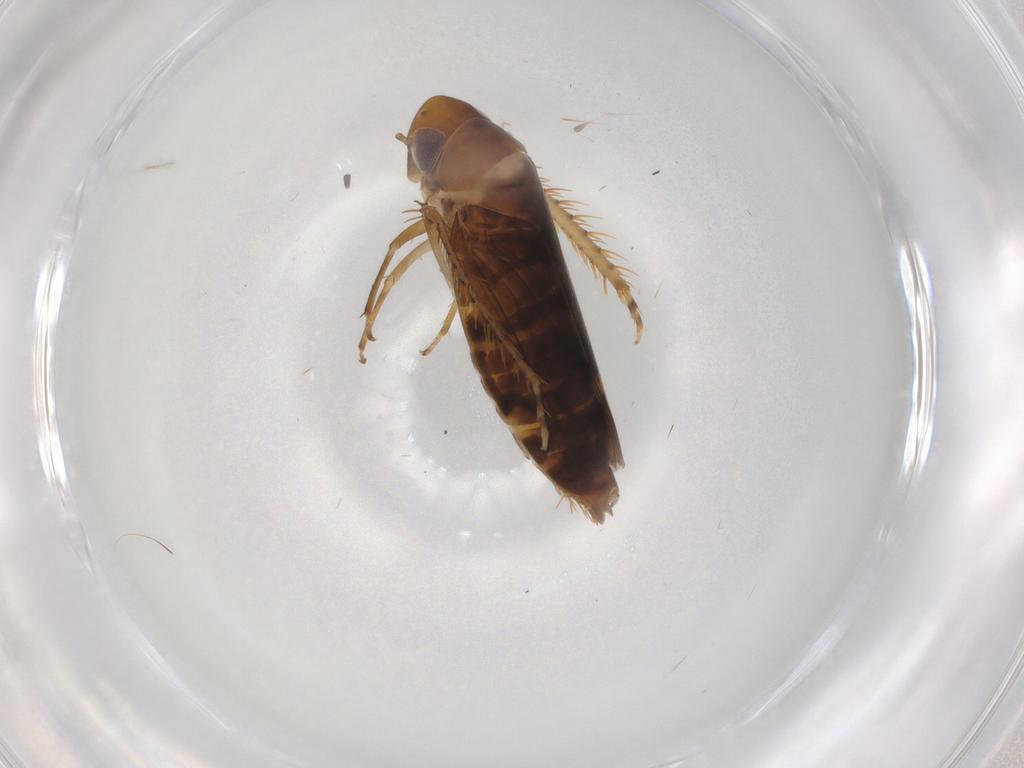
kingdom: Animalia
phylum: Arthropoda
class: Insecta
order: Hemiptera
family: Cicadellidae
